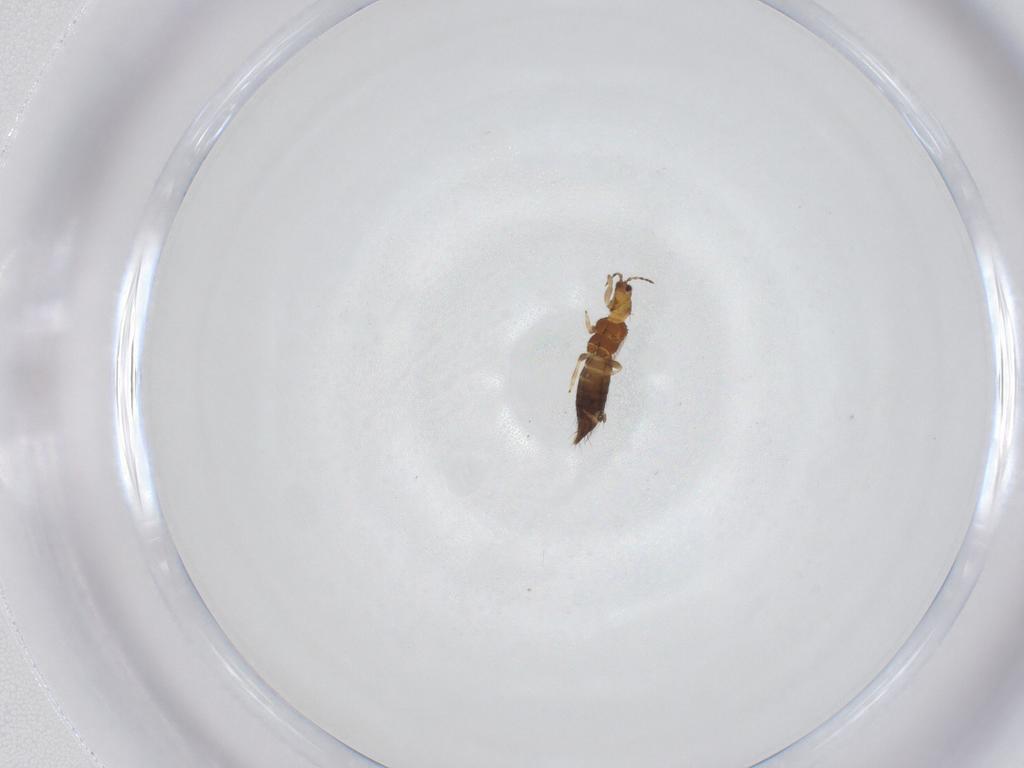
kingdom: Animalia
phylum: Arthropoda
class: Insecta
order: Thysanoptera
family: Thripidae
